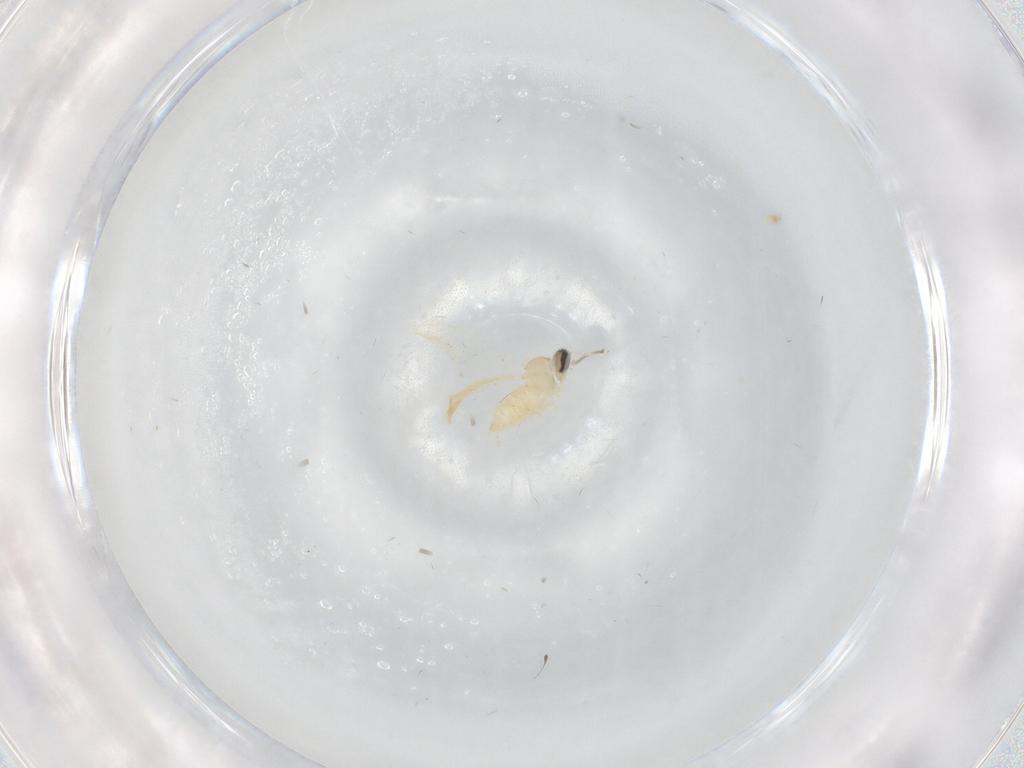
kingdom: Animalia
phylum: Arthropoda
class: Insecta
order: Diptera
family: Cecidomyiidae
